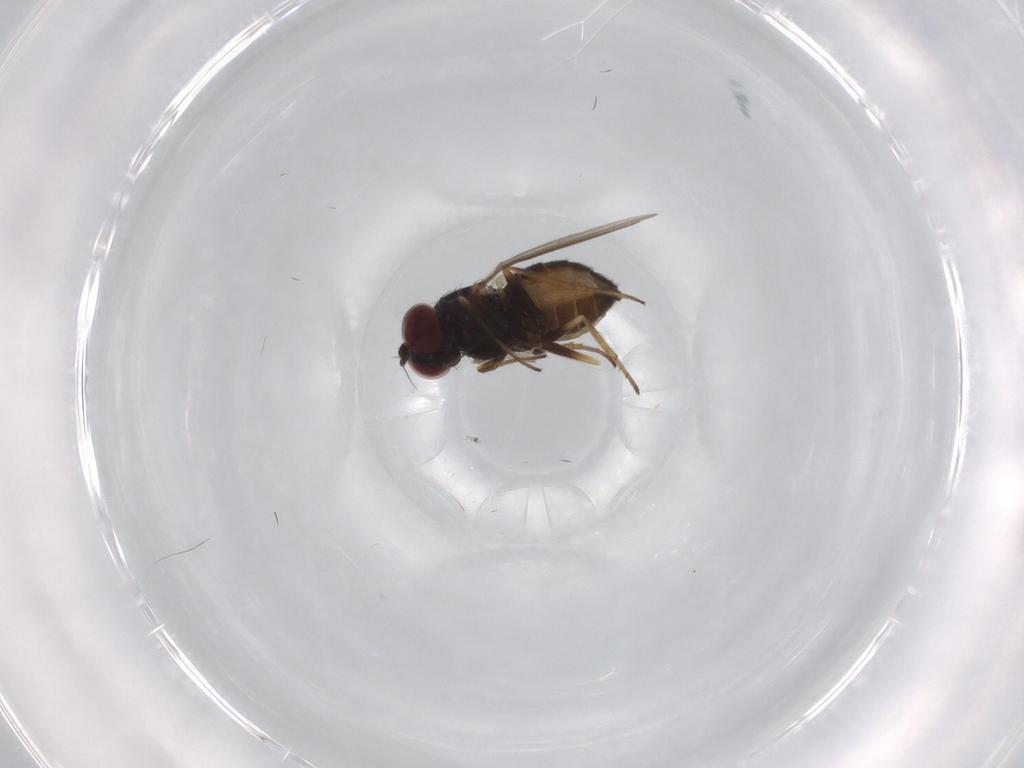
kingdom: Animalia
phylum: Arthropoda
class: Insecta
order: Diptera
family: Dolichopodidae
